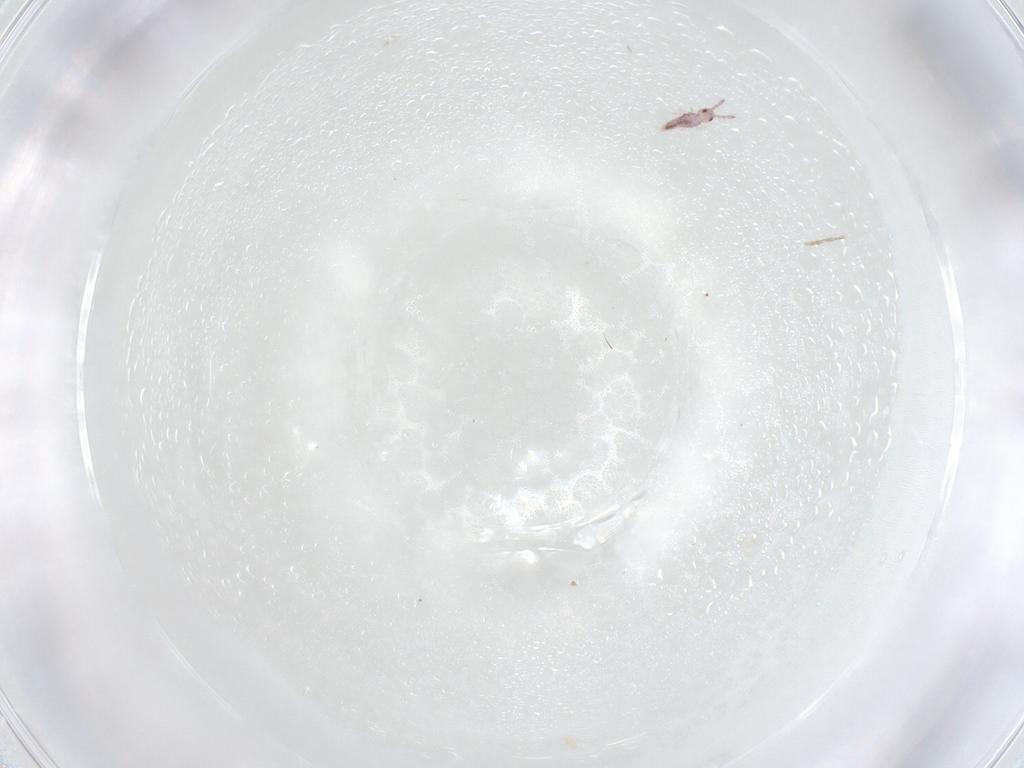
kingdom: Animalia
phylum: Arthropoda
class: Collembola
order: Entomobryomorpha
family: Entomobryidae
